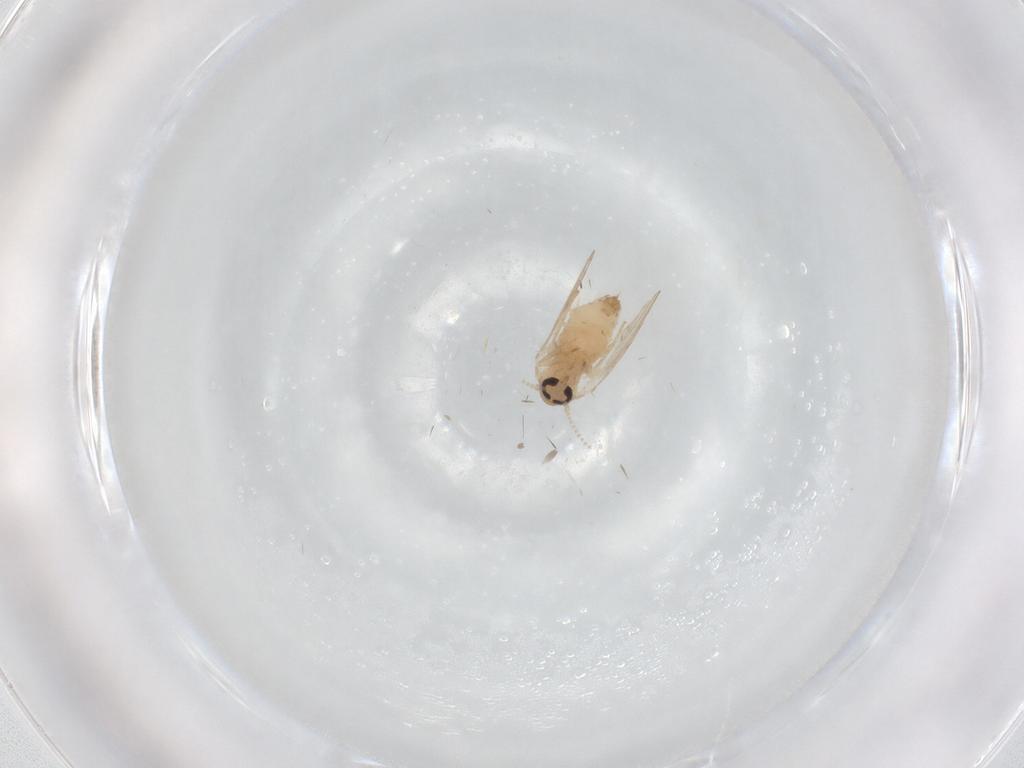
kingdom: Animalia
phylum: Arthropoda
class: Insecta
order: Diptera
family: Psychodidae
